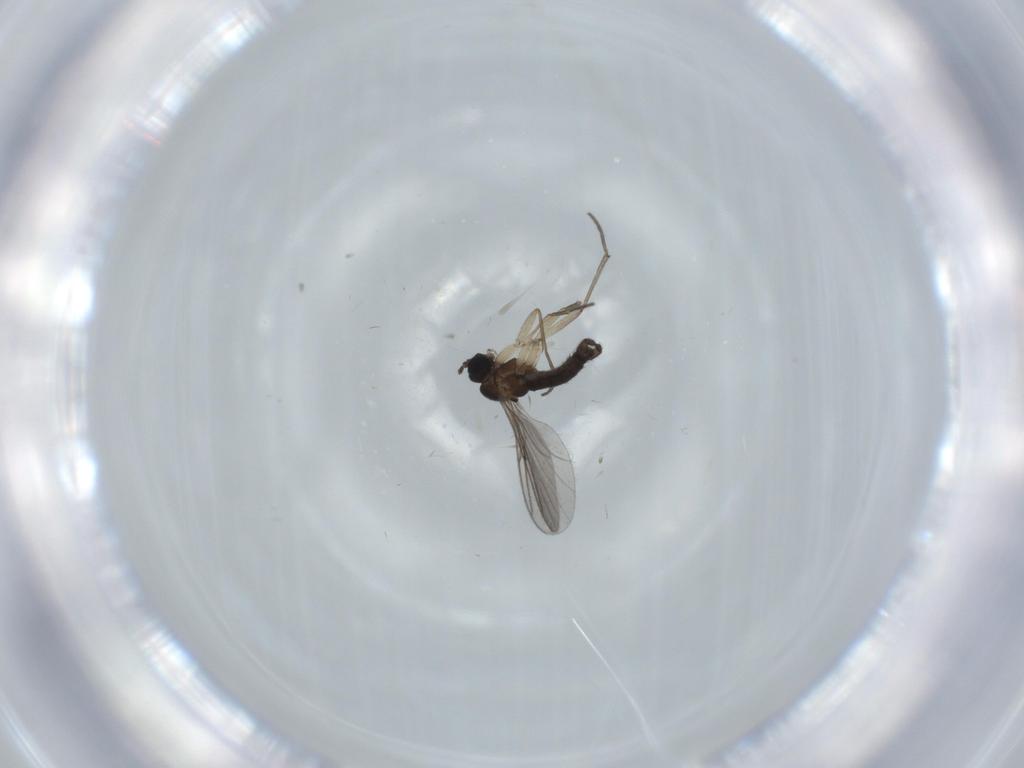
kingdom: Animalia
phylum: Arthropoda
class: Insecta
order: Diptera
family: Sciaridae
